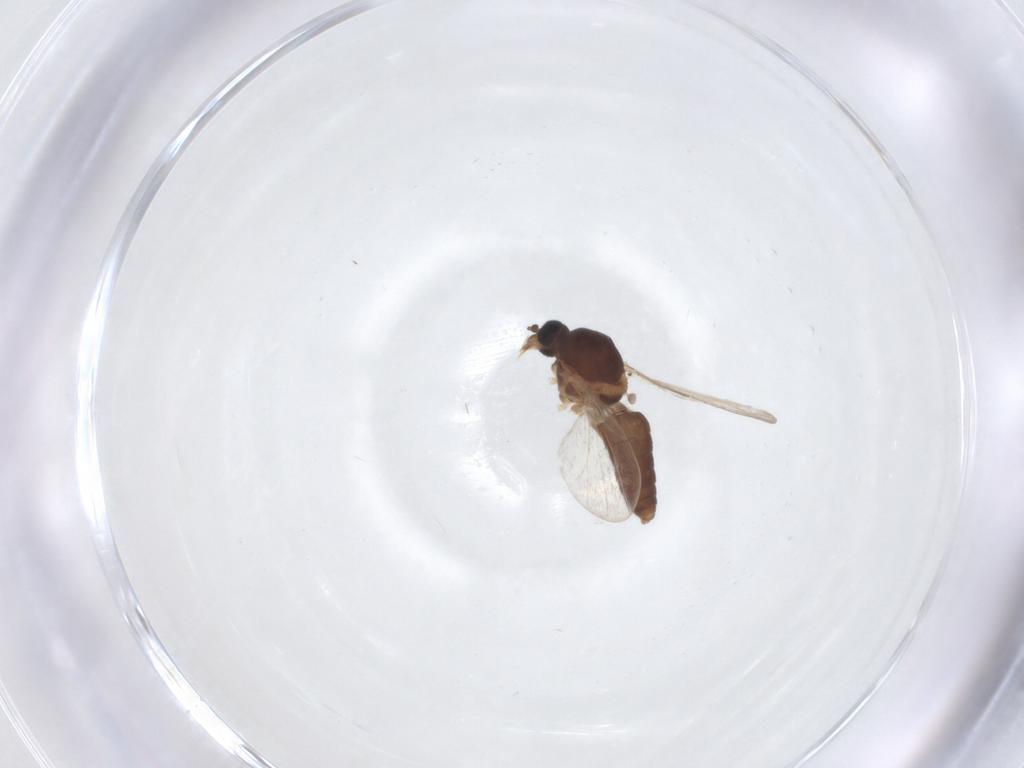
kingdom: Animalia
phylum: Arthropoda
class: Insecta
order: Diptera
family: Ceratopogonidae
